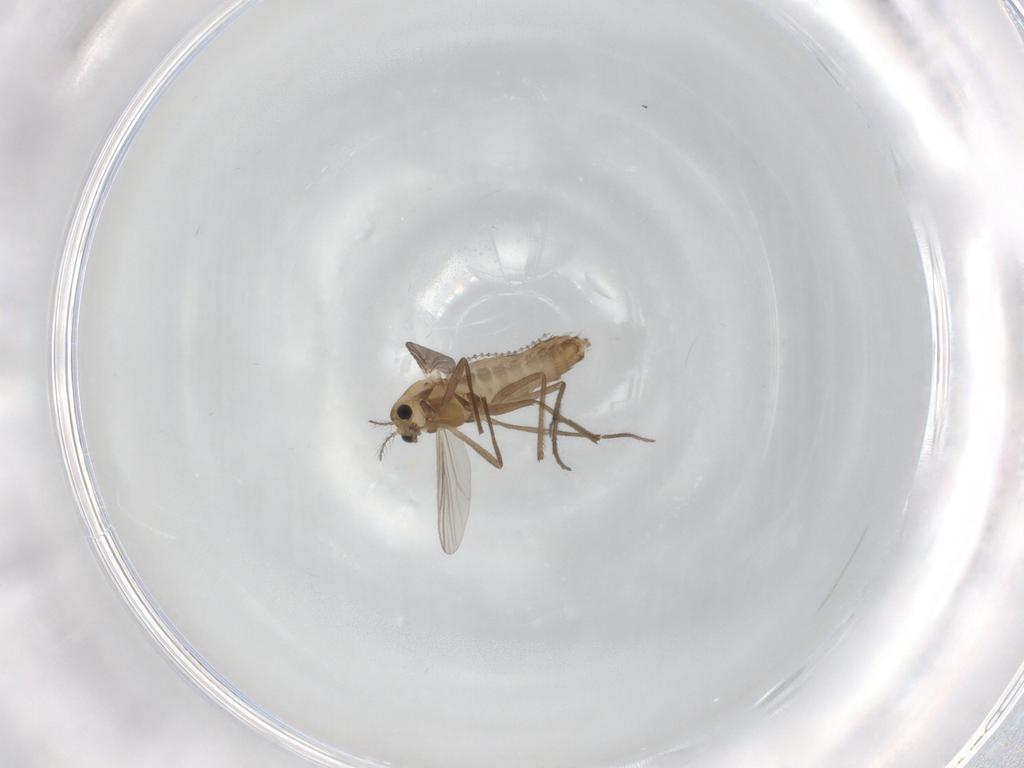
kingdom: Animalia
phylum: Arthropoda
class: Insecta
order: Diptera
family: Chironomidae
